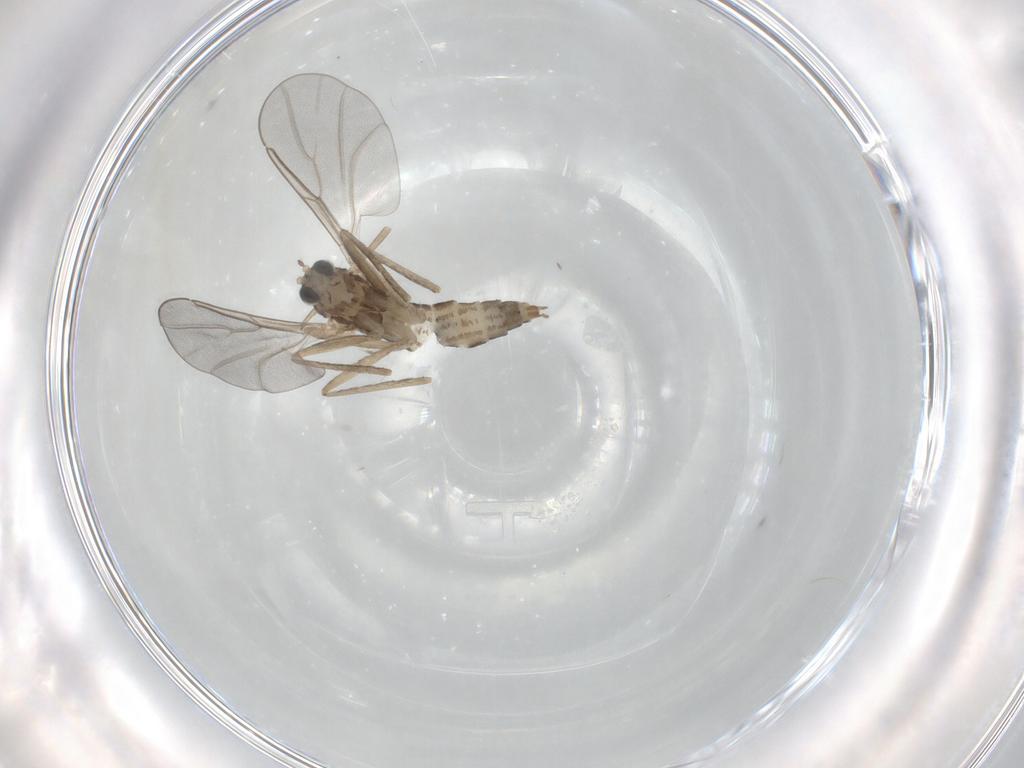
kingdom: Animalia
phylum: Arthropoda
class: Insecta
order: Diptera
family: Cecidomyiidae
